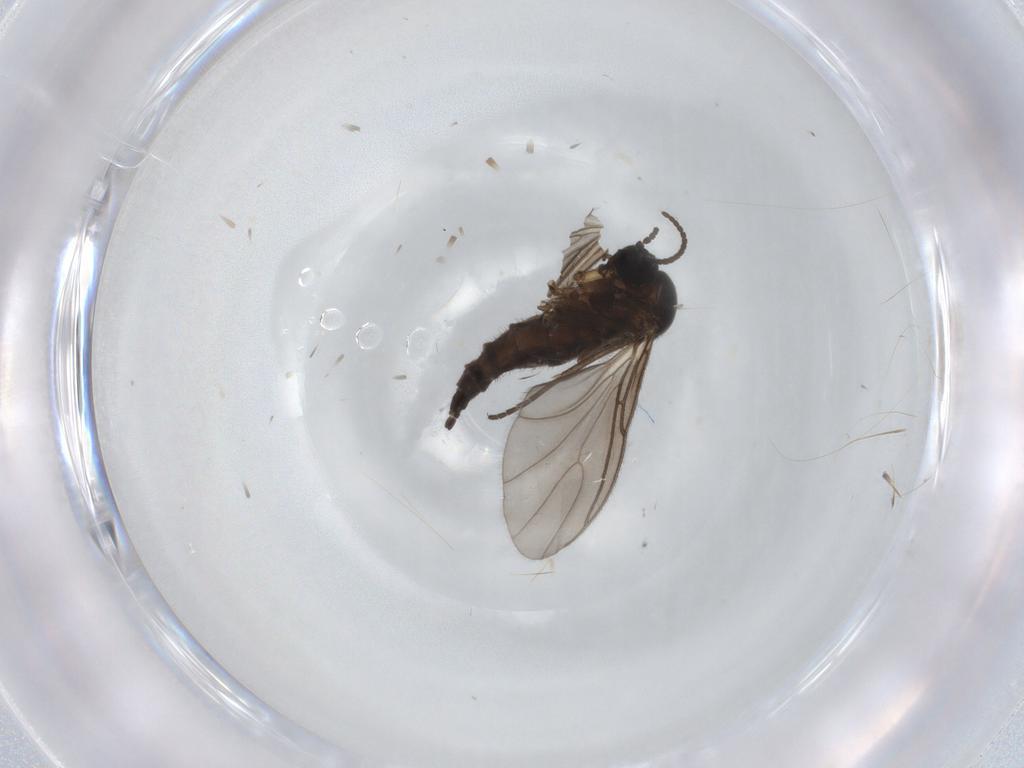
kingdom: Animalia
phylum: Arthropoda
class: Insecta
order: Diptera
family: Sciaridae
